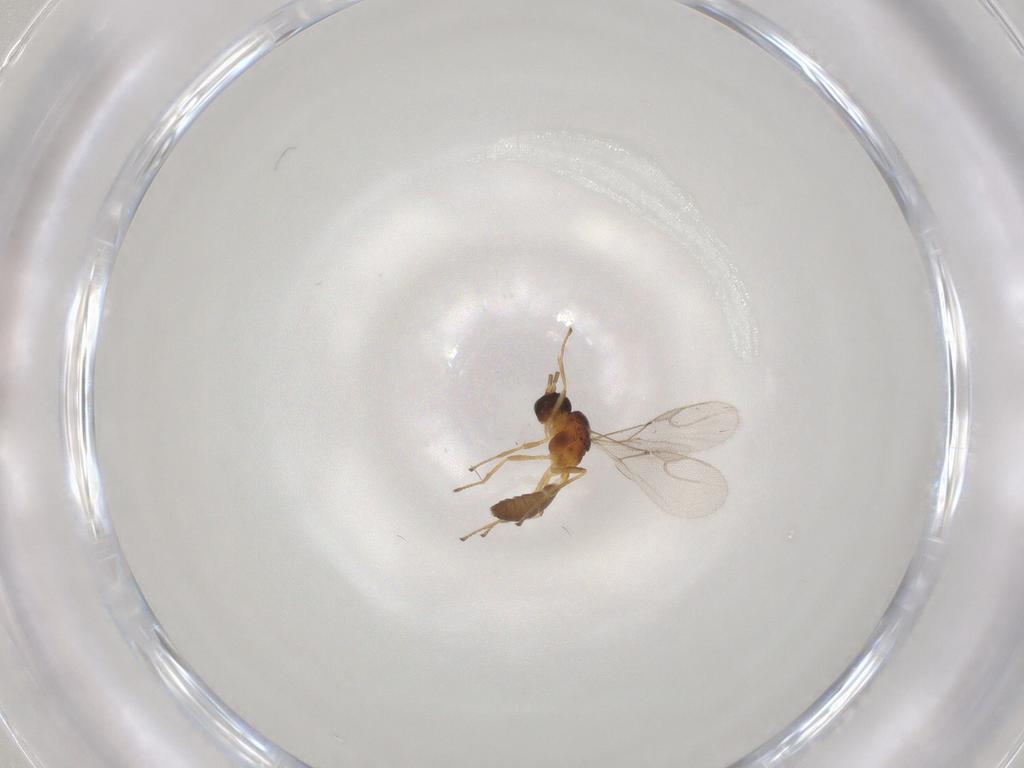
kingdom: Animalia
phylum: Arthropoda
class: Insecta
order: Hymenoptera
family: Braconidae
